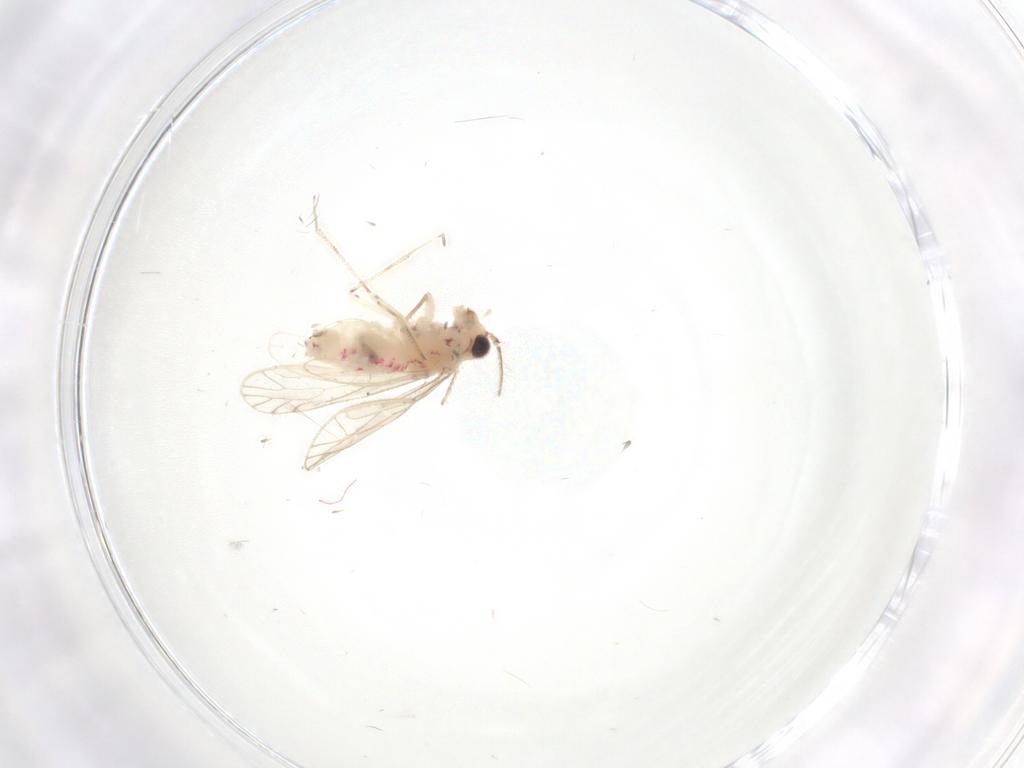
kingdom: Animalia
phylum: Arthropoda
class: Insecta
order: Psocodea
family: Caeciliusidae
